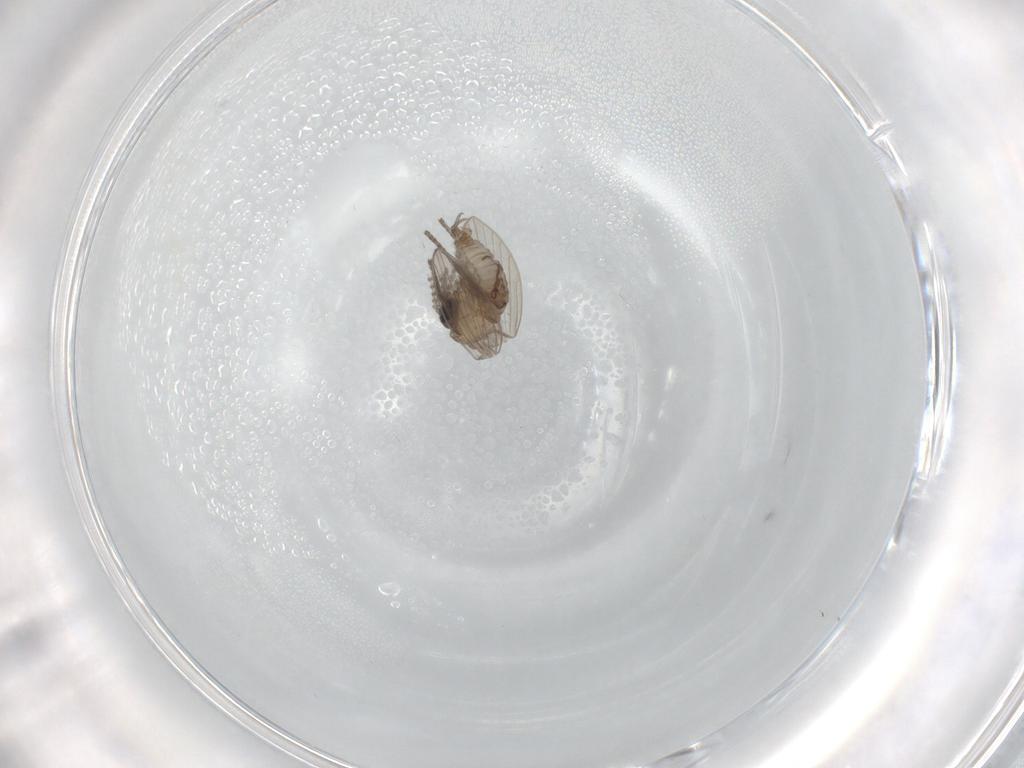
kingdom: Animalia
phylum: Arthropoda
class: Insecta
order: Diptera
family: Psychodidae
